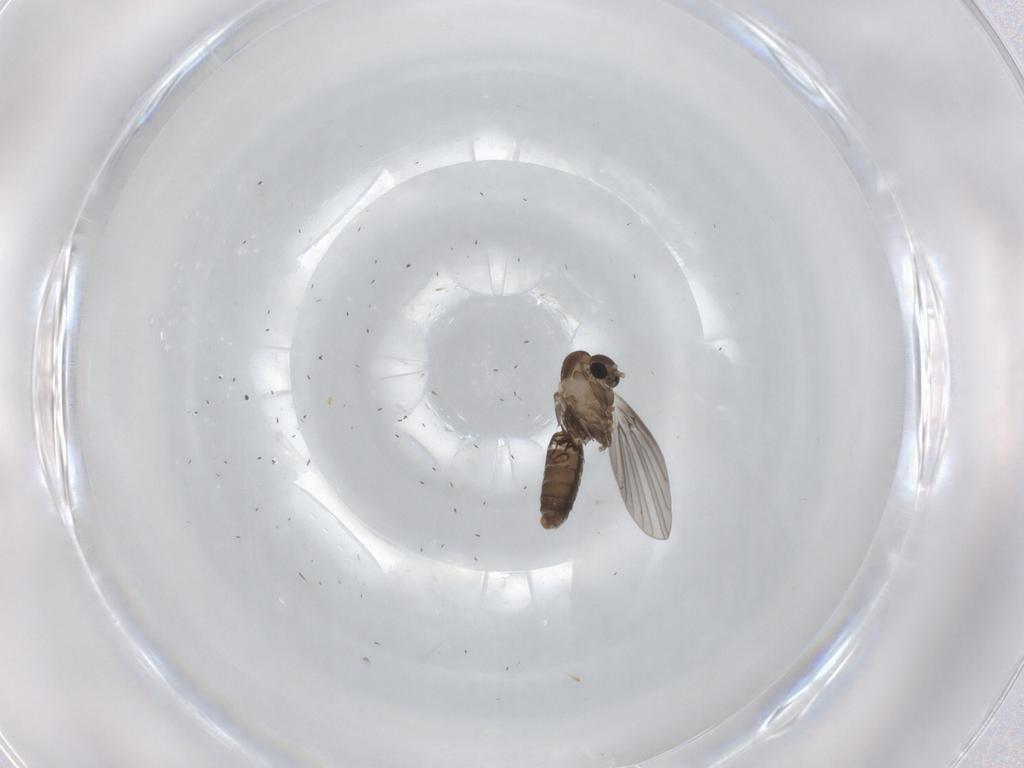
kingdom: Animalia
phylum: Arthropoda
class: Insecta
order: Diptera
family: Psychodidae
